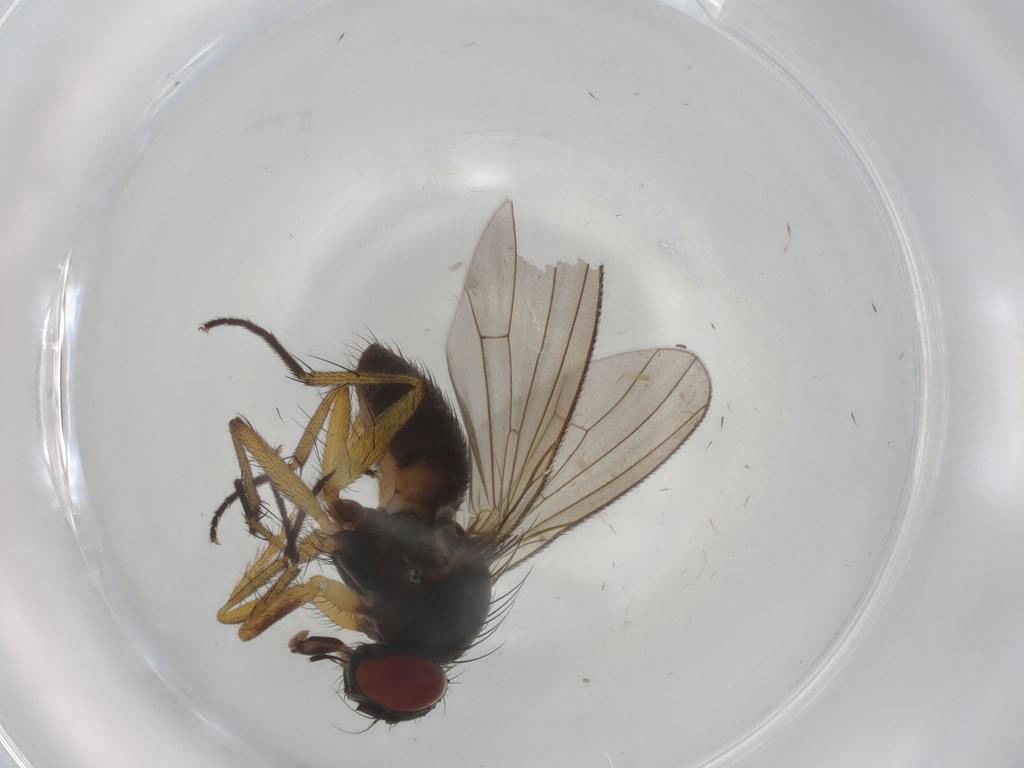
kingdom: Animalia
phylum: Arthropoda
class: Insecta
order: Diptera
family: Muscidae
